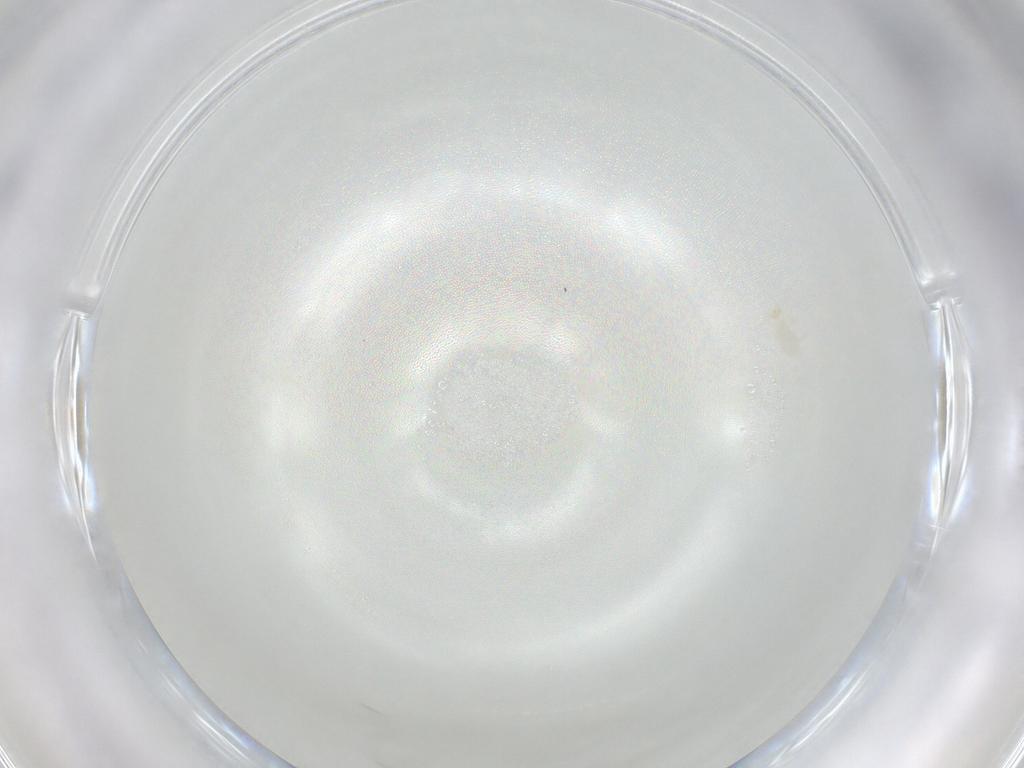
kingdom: Animalia
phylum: Arthropoda
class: Arachnida
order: Trombidiformes
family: Erythraeidae
